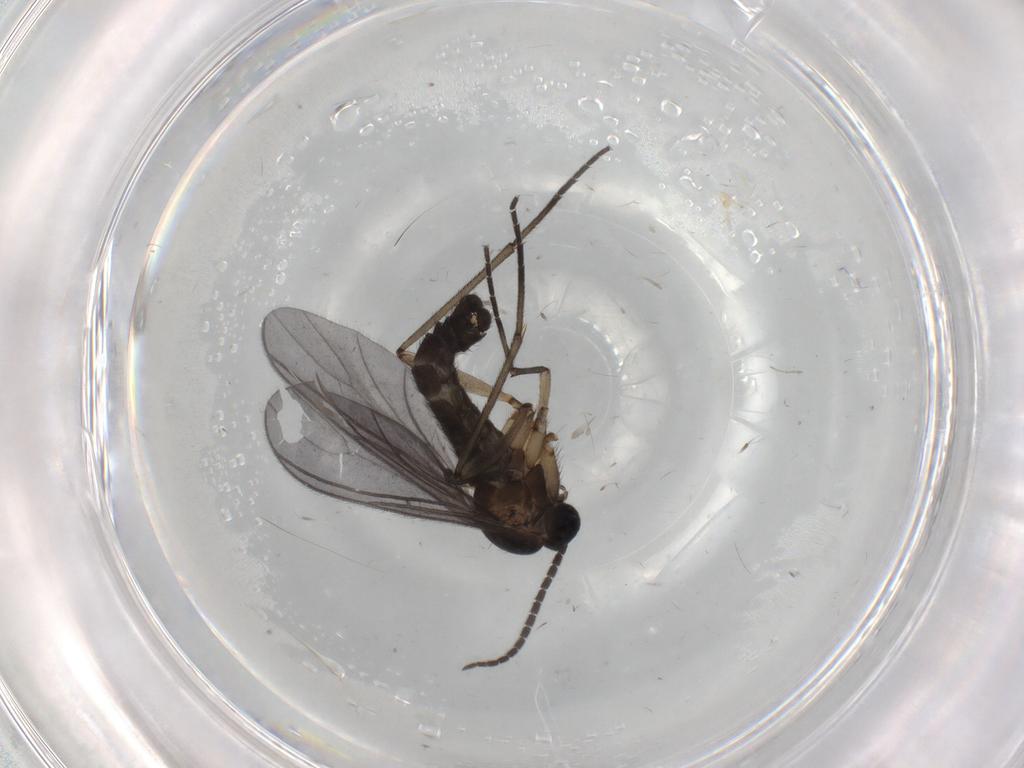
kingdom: Animalia
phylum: Arthropoda
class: Insecta
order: Diptera
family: Sciaridae
